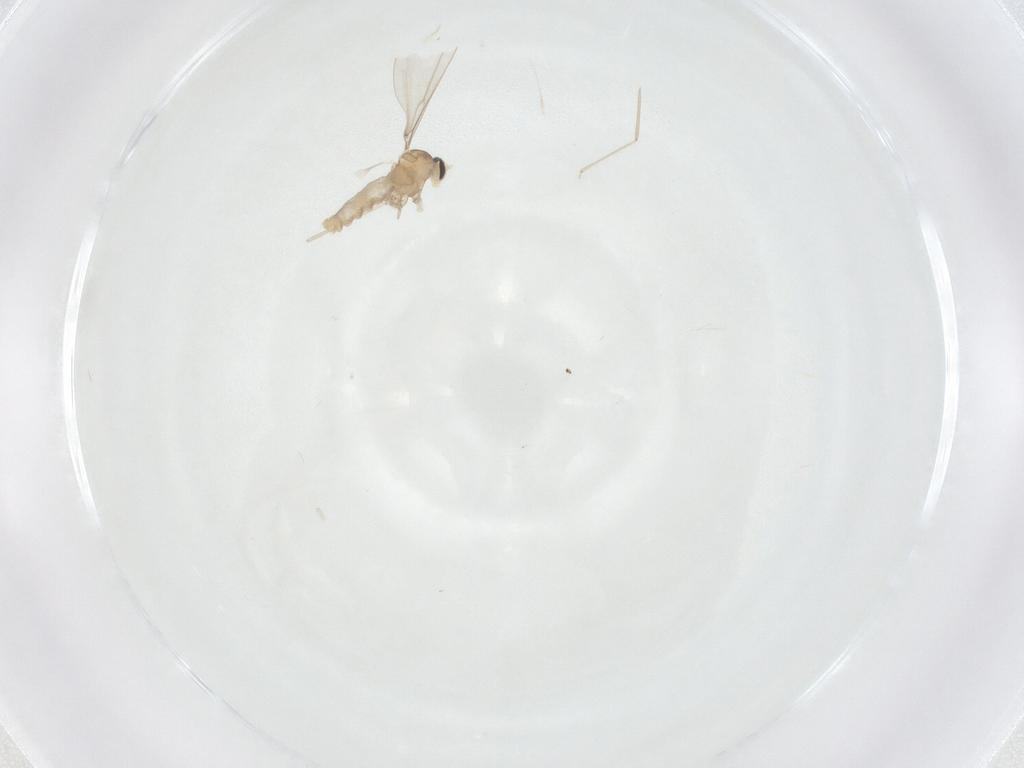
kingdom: Animalia
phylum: Arthropoda
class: Insecta
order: Diptera
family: Cecidomyiidae
